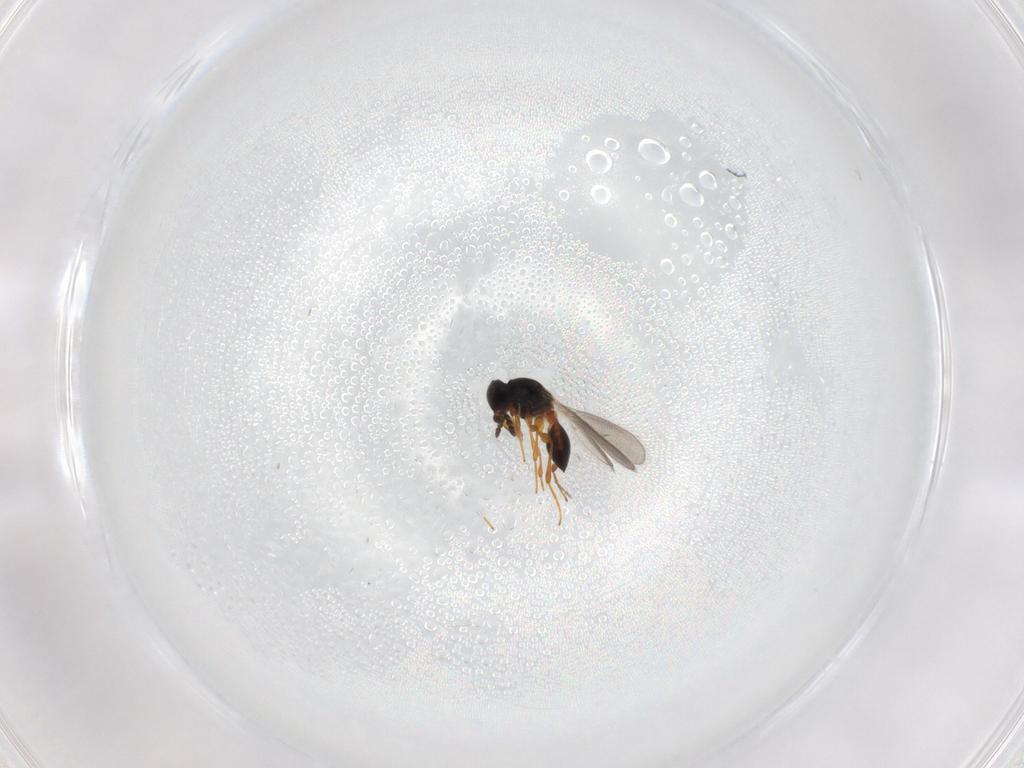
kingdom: Animalia
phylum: Arthropoda
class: Insecta
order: Hymenoptera
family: Platygastridae
